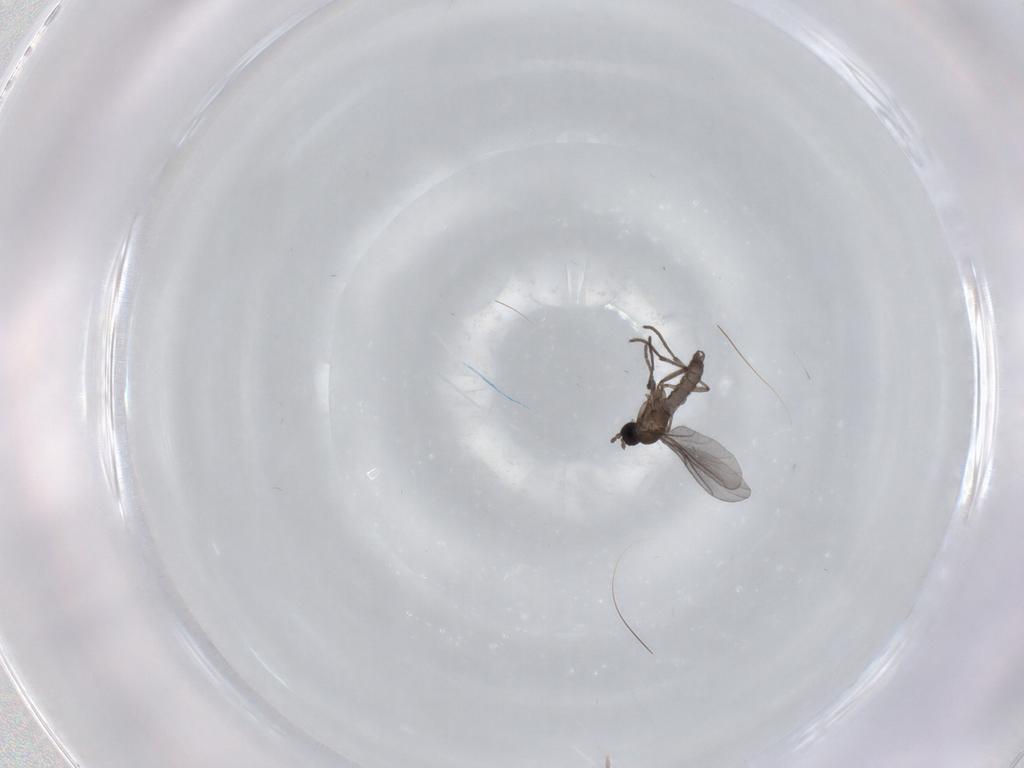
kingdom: Animalia
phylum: Arthropoda
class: Insecta
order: Diptera
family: Sciaridae
